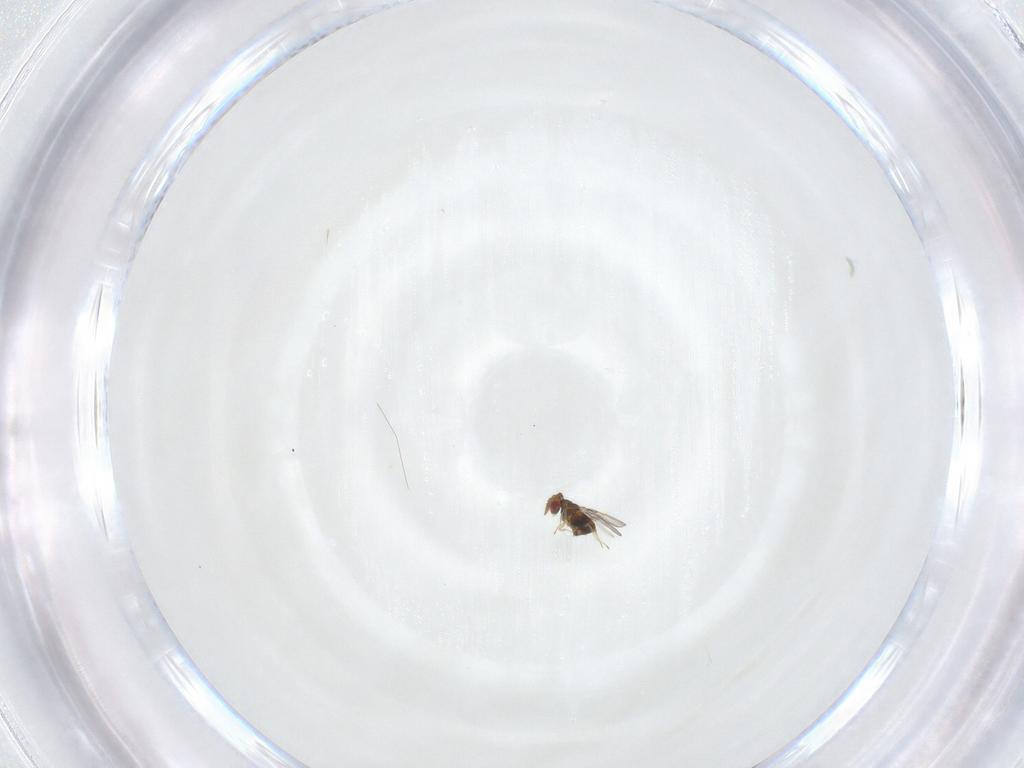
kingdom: Animalia
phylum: Arthropoda
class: Insecta
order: Hymenoptera
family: Trichogrammatidae
